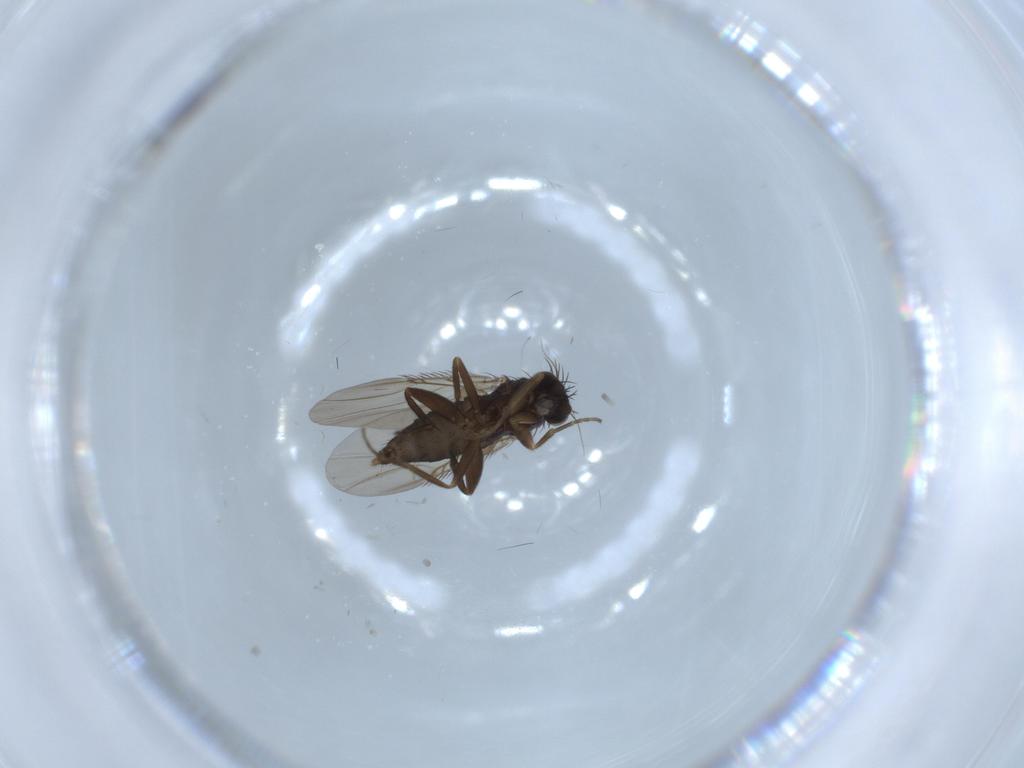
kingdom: Animalia
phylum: Arthropoda
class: Insecta
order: Diptera
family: Phoridae
